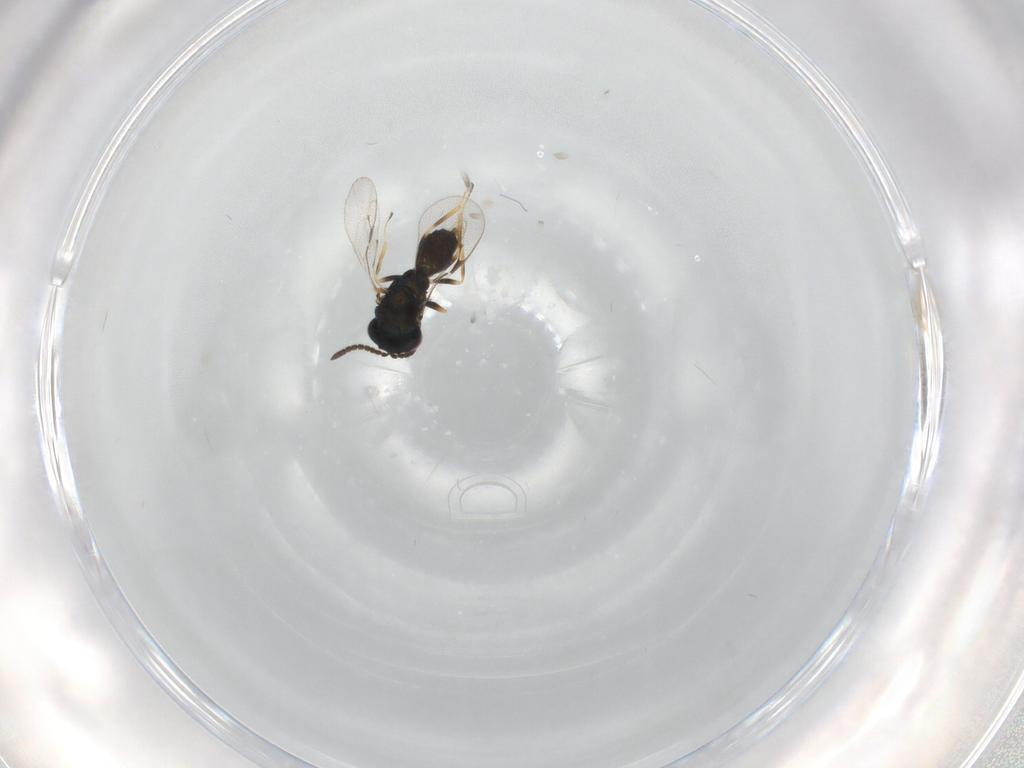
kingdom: Animalia
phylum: Arthropoda
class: Insecta
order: Hymenoptera
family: Pteromalidae
